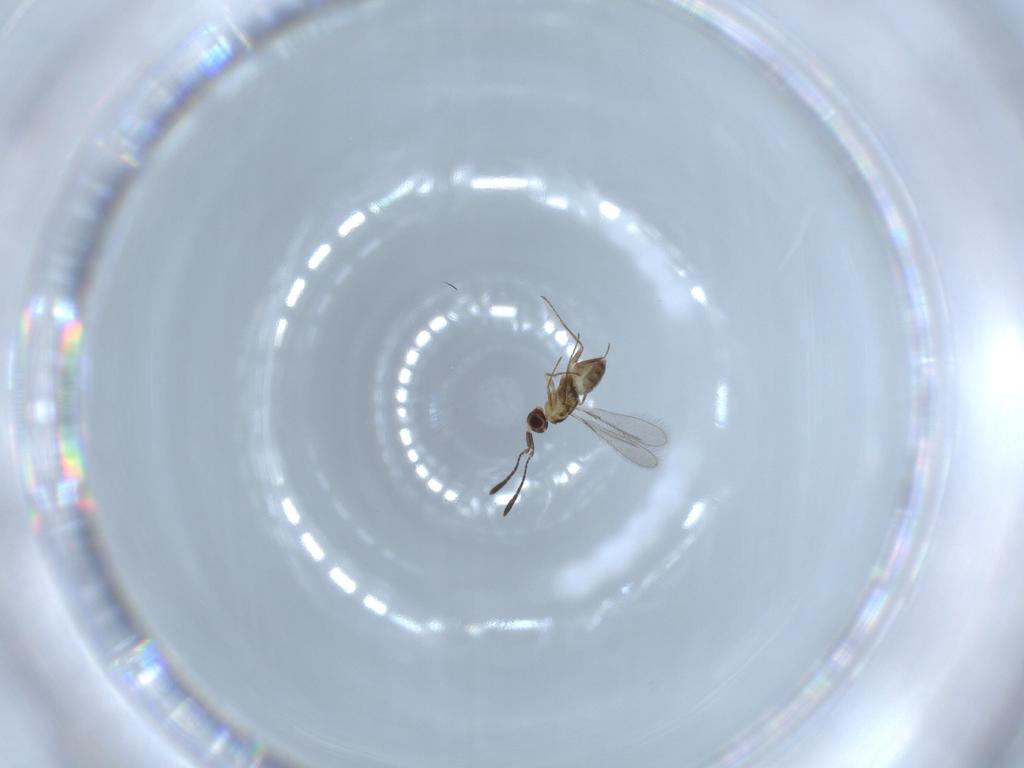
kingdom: Animalia
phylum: Arthropoda
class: Insecta
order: Hymenoptera
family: Mymaridae
